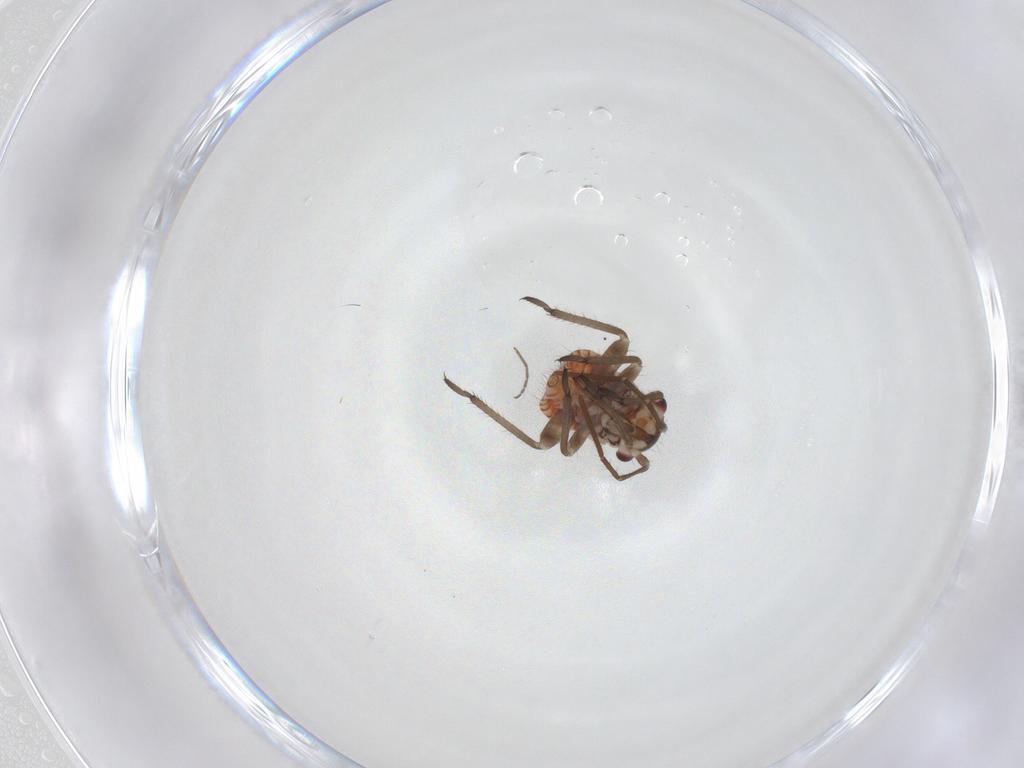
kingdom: Animalia
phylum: Arthropoda
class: Insecta
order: Hemiptera
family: Miridae
